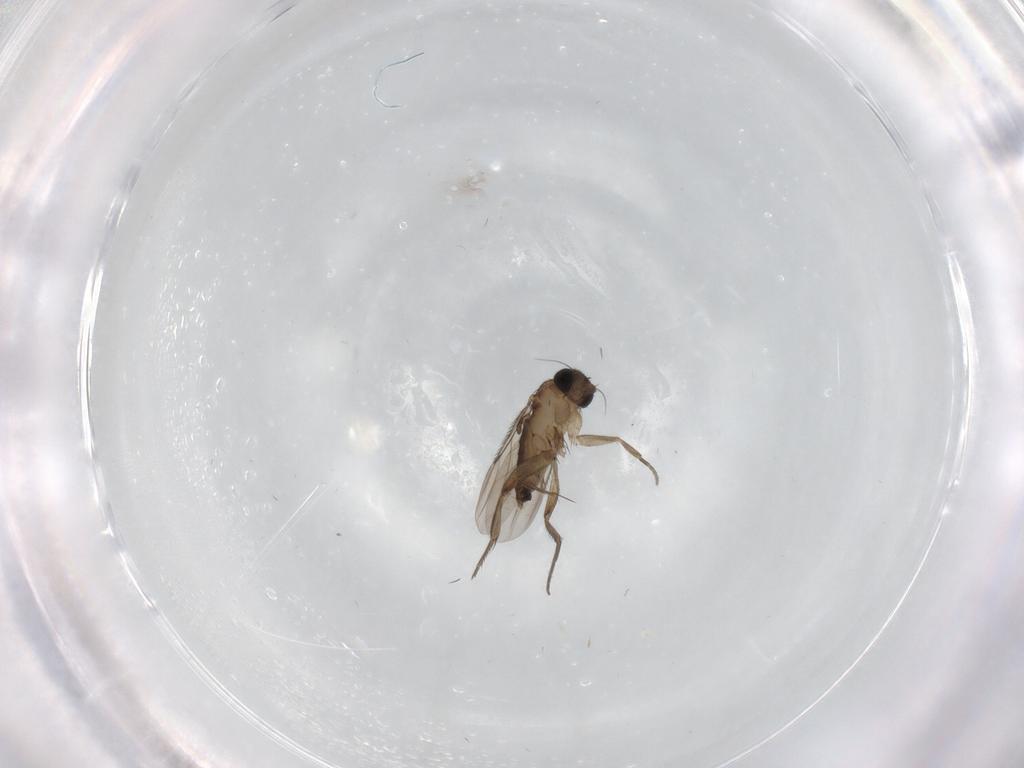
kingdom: Animalia
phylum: Arthropoda
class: Insecta
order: Diptera
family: Phoridae
